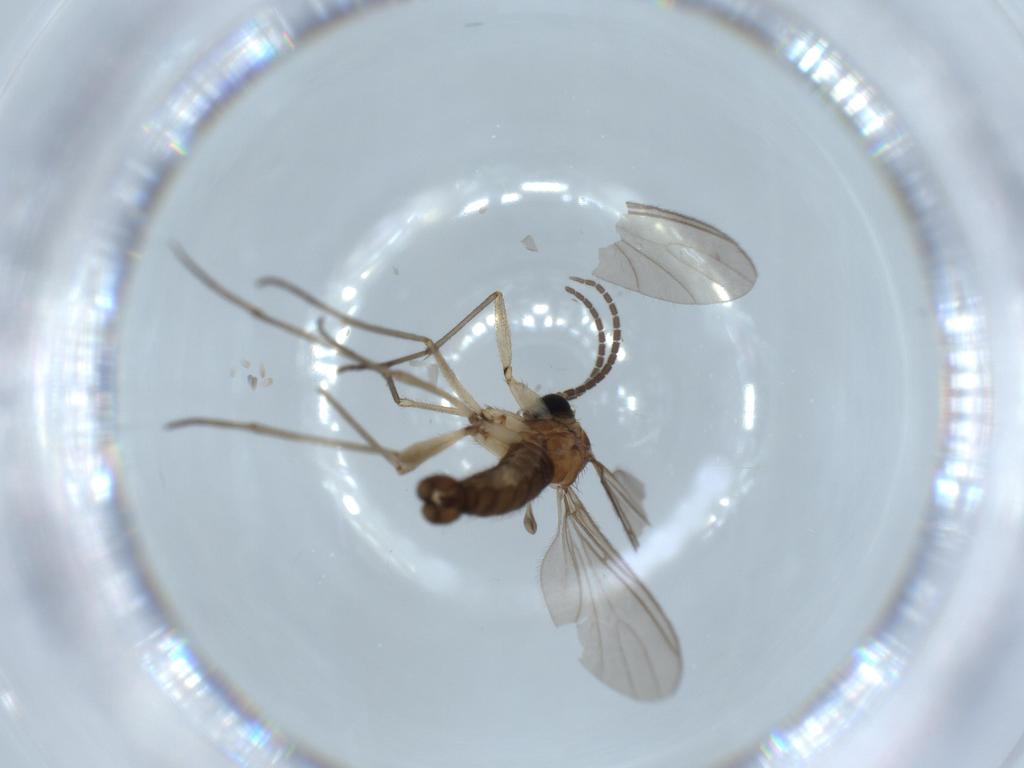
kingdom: Animalia
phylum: Arthropoda
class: Insecta
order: Diptera
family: Sciaridae
